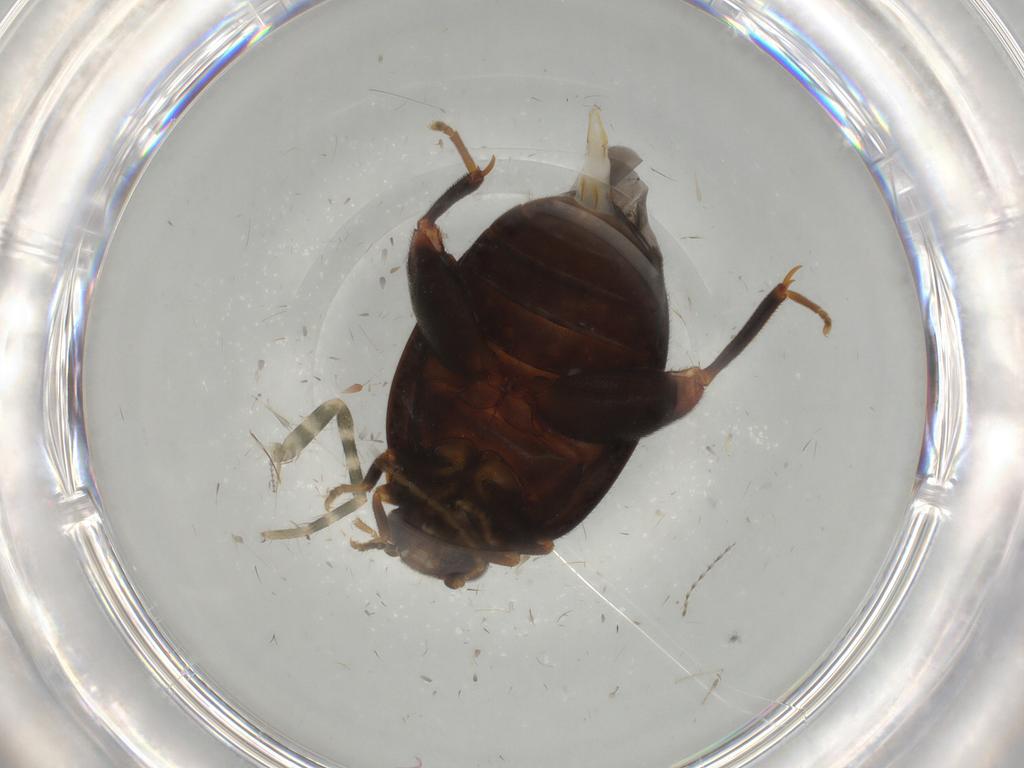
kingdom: Animalia
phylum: Arthropoda
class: Insecta
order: Coleoptera
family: Scirtidae
